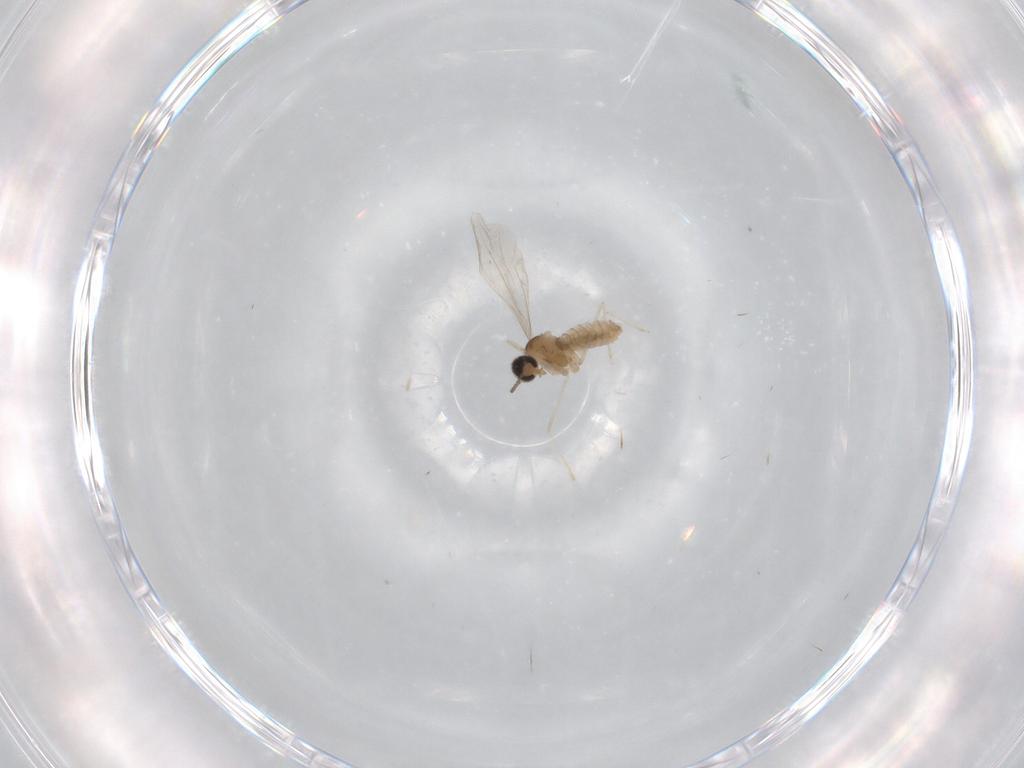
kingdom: Animalia
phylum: Arthropoda
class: Insecta
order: Diptera
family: Cecidomyiidae
